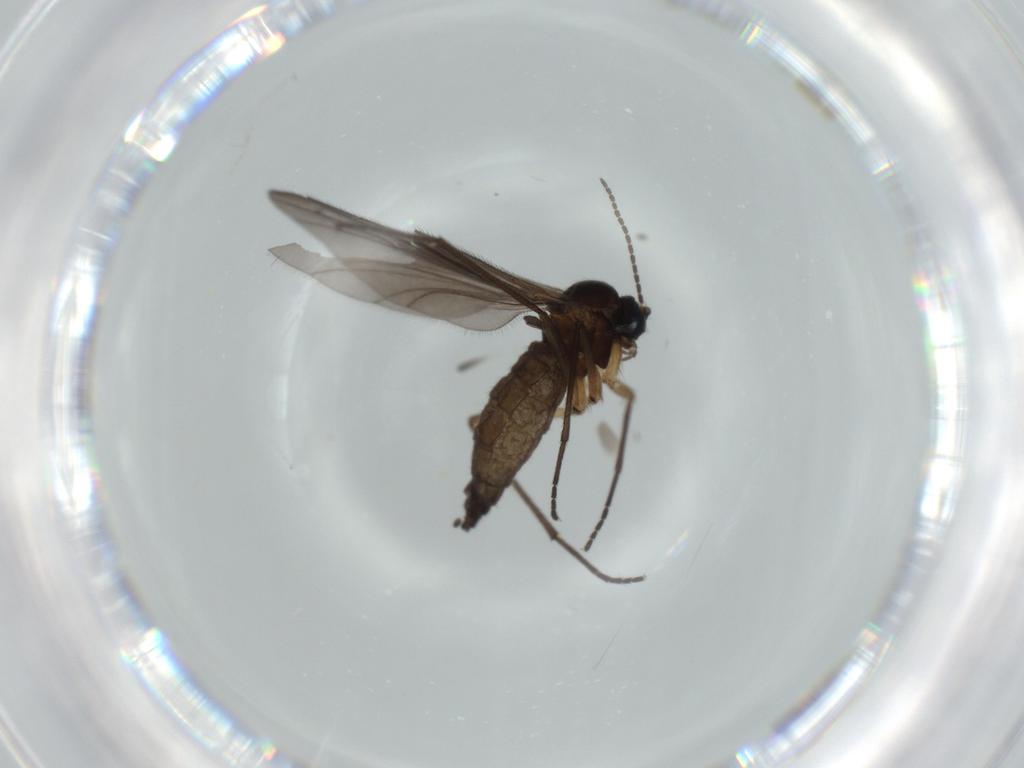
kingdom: Animalia
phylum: Arthropoda
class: Insecta
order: Diptera
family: Sciaridae
